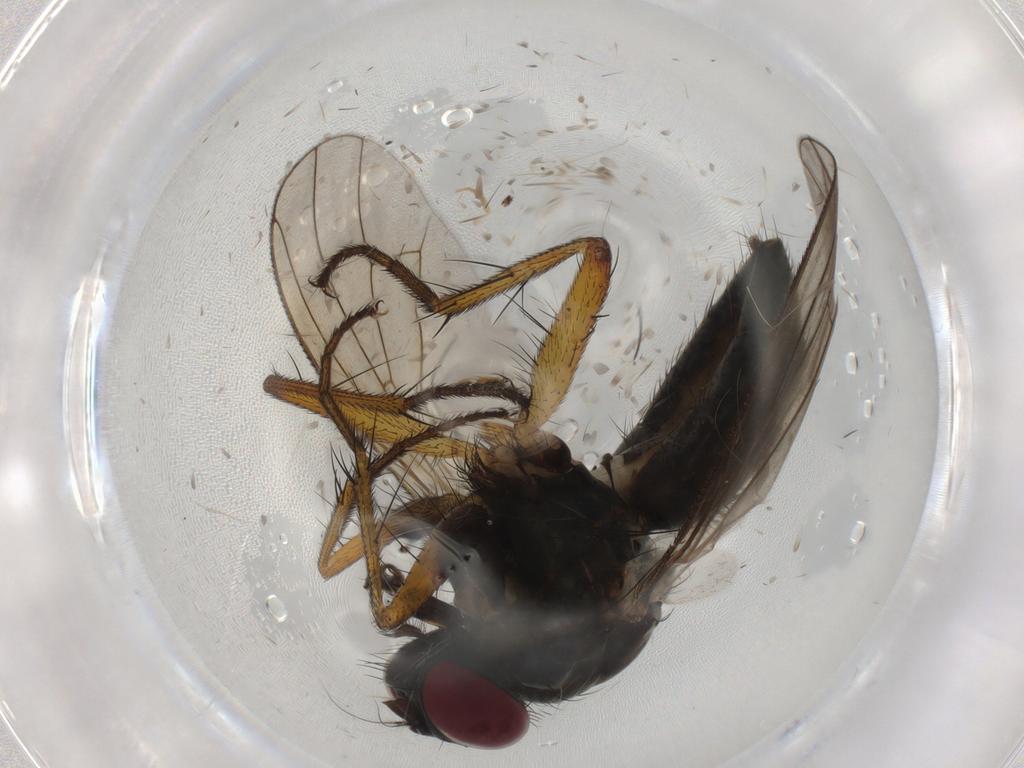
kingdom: Animalia
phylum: Arthropoda
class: Insecta
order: Diptera
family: Muscidae
